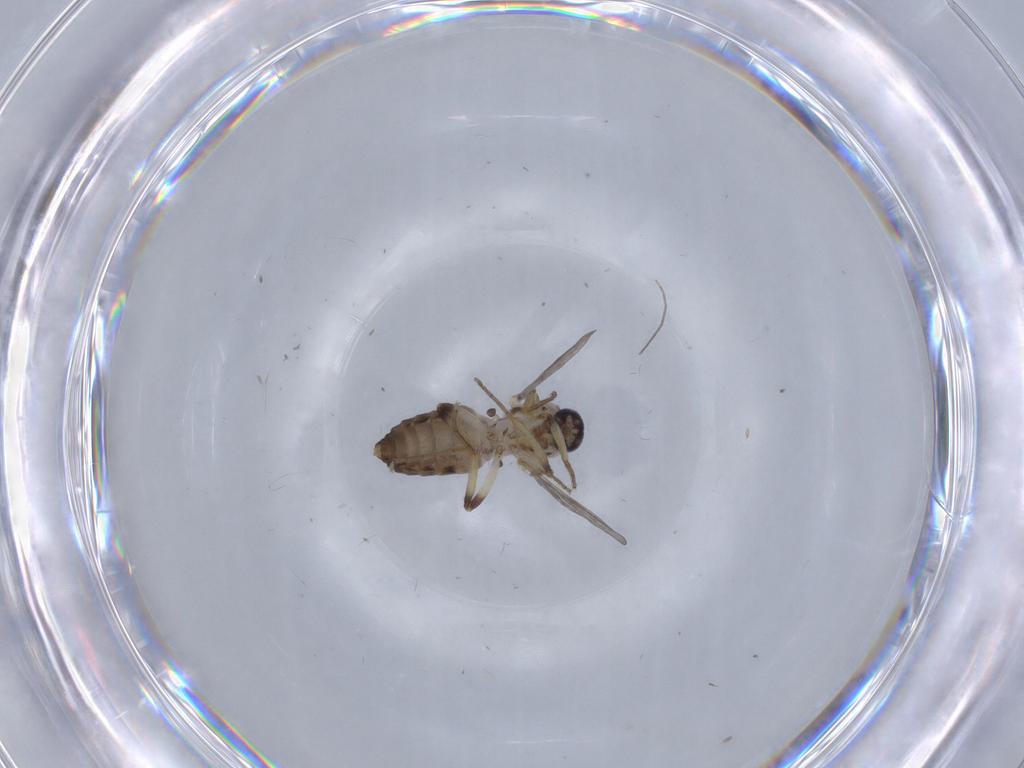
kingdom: Animalia
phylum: Arthropoda
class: Insecta
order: Diptera
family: Ceratopogonidae
